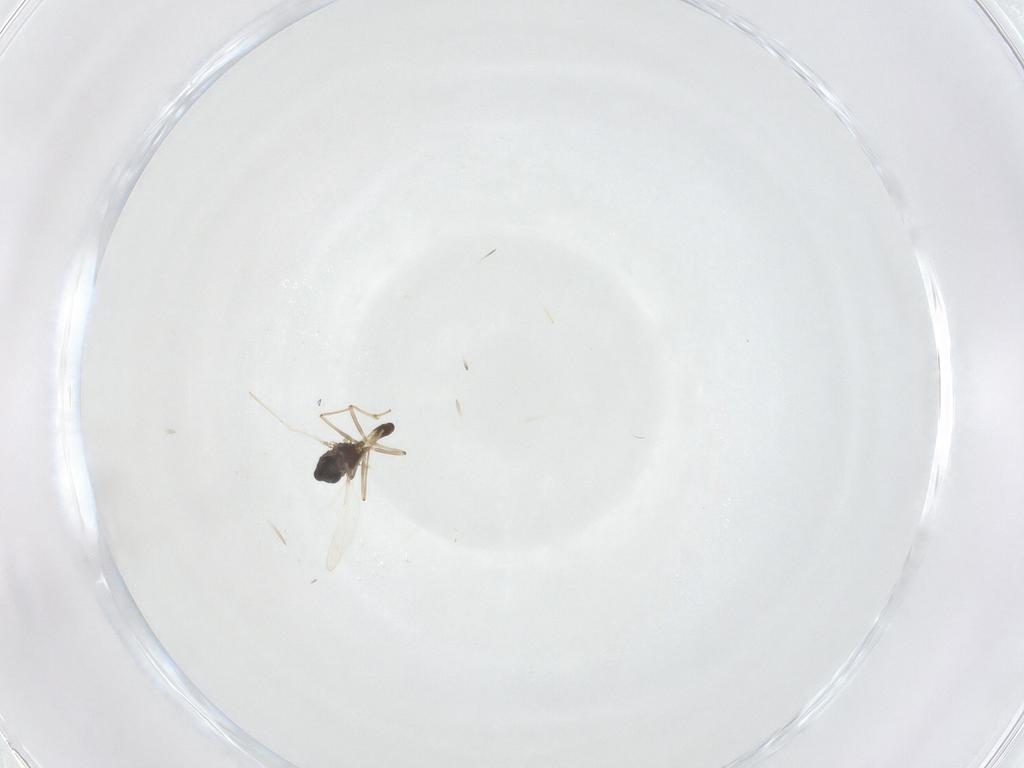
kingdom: Animalia
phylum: Arthropoda
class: Insecta
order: Diptera
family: Chironomidae
